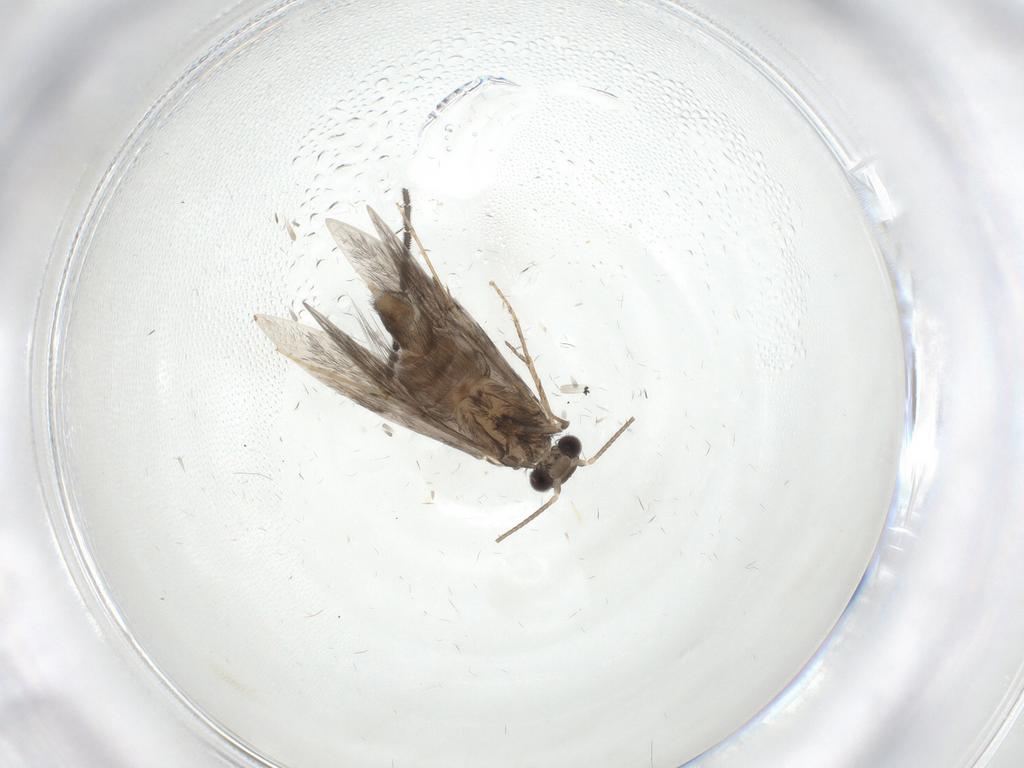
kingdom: Animalia
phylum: Arthropoda
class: Insecta
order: Trichoptera
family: Hydroptilidae
